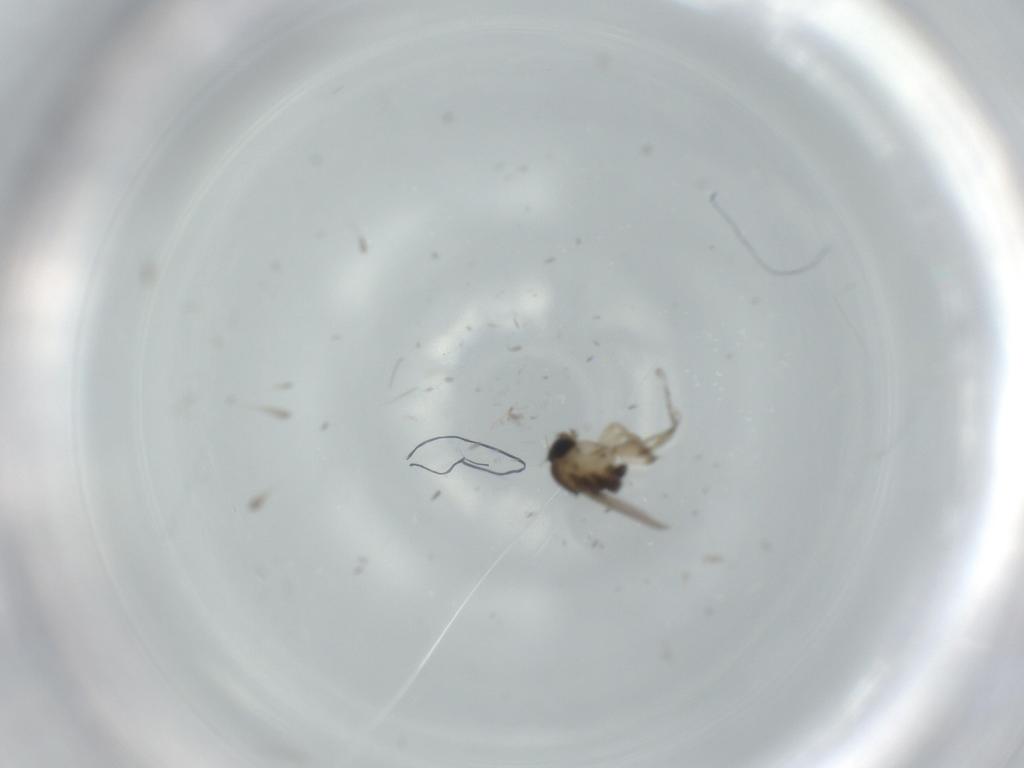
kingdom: Animalia
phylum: Arthropoda
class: Insecta
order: Diptera
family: Phoridae
